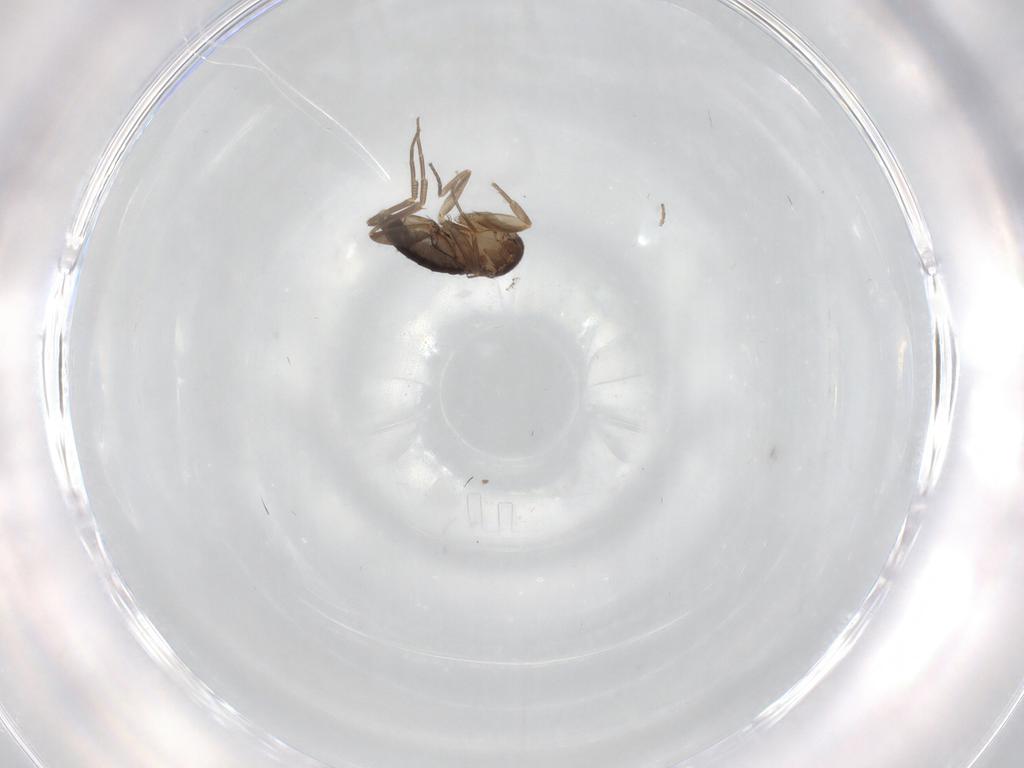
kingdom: Animalia
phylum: Arthropoda
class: Insecta
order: Diptera
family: Phoridae
